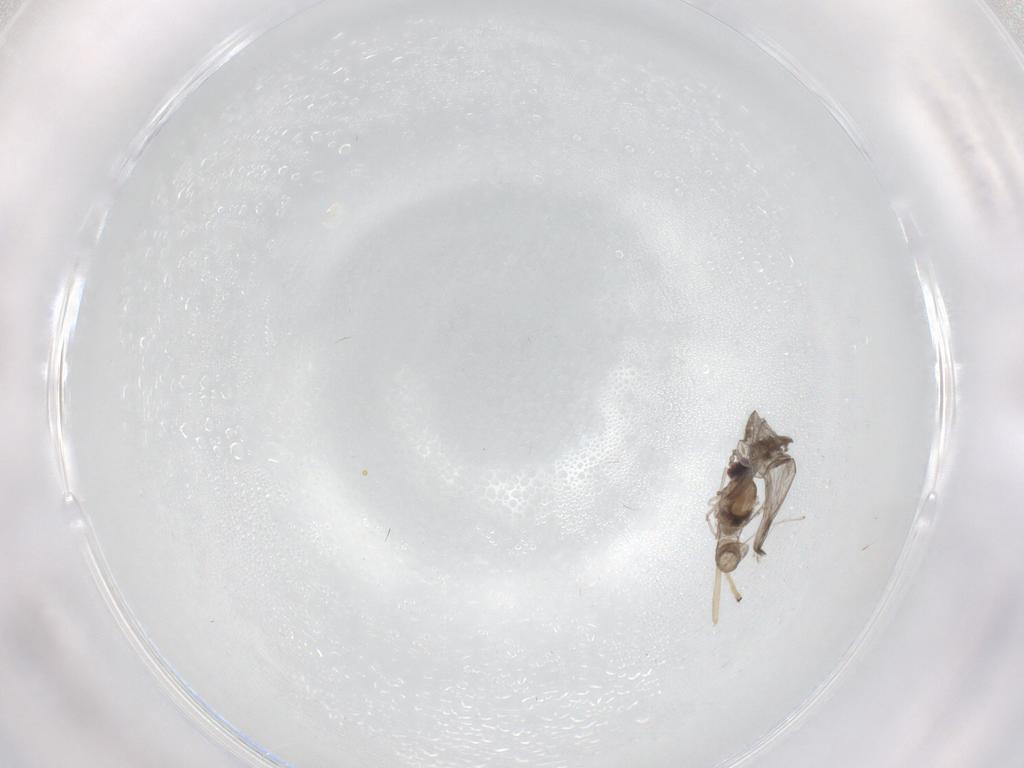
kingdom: Animalia
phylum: Arthropoda
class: Insecta
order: Diptera
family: Chironomidae
